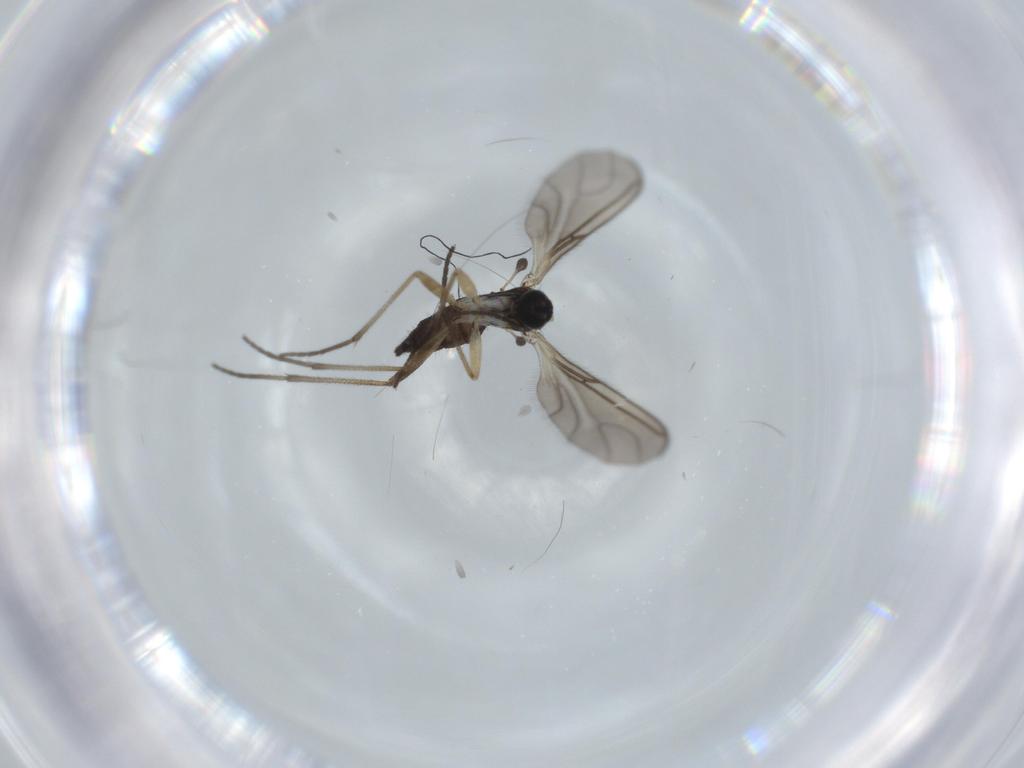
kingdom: Animalia
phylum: Arthropoda
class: Insecta
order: Diptera
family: Sciaridae
